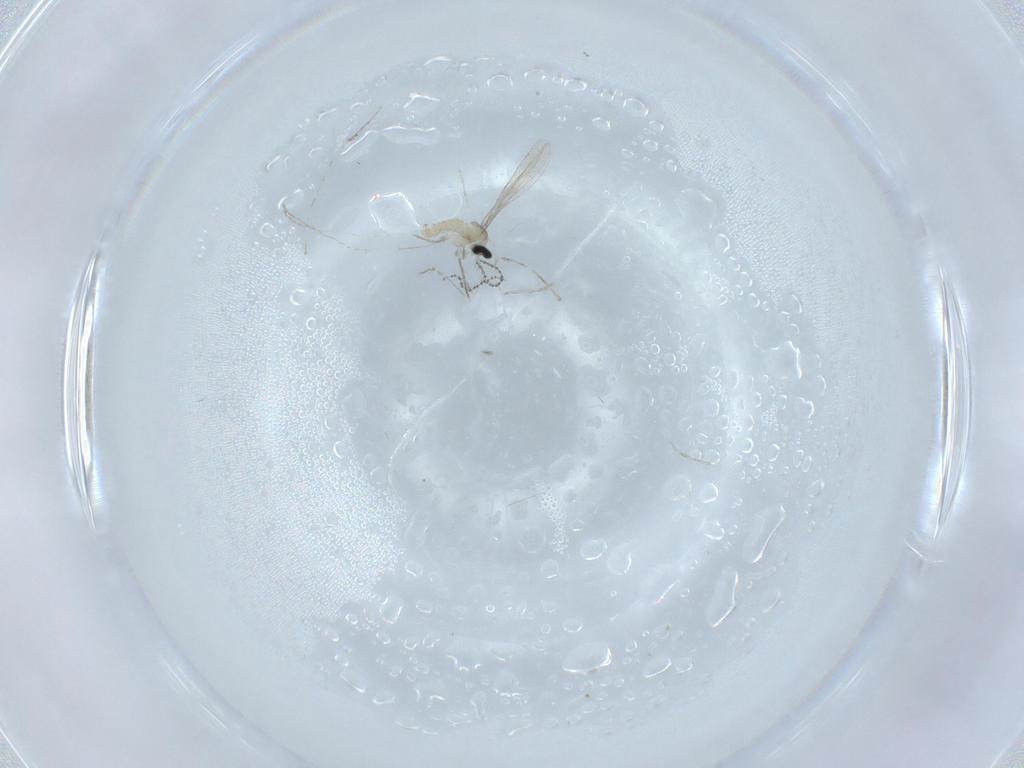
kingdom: Animalia
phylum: Arthropoda
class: Insecta
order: Diptera
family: Cecidomyiidae
